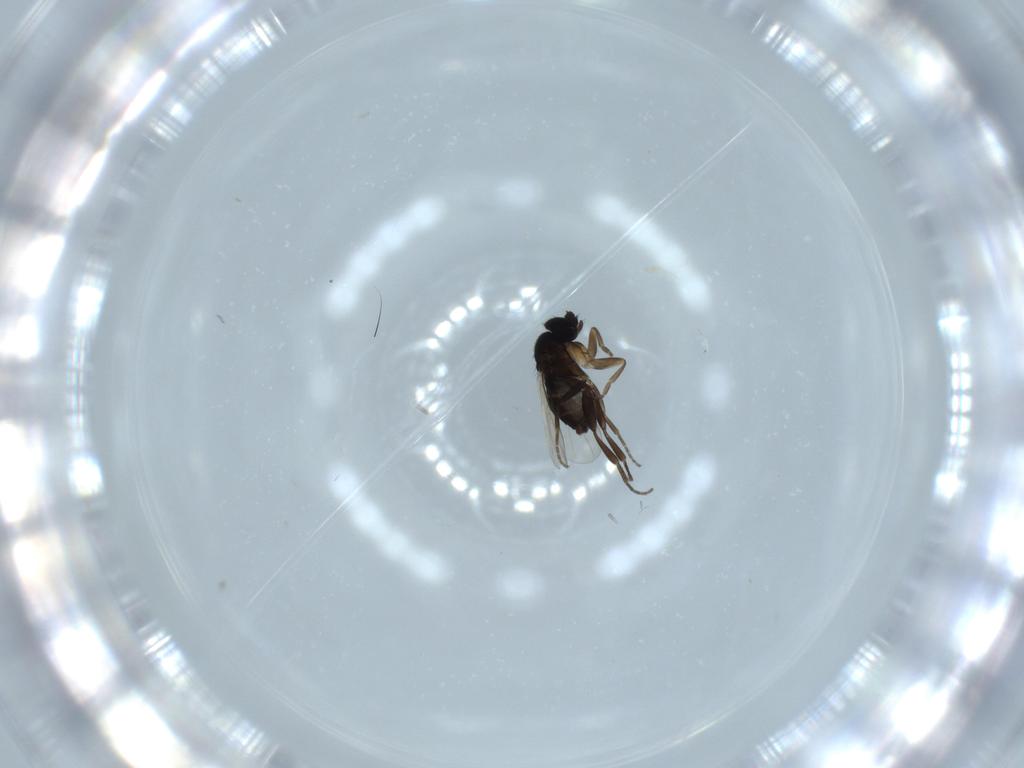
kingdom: Animalia
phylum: Arthropoda
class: Insecta
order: Diptera
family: Phoridae
